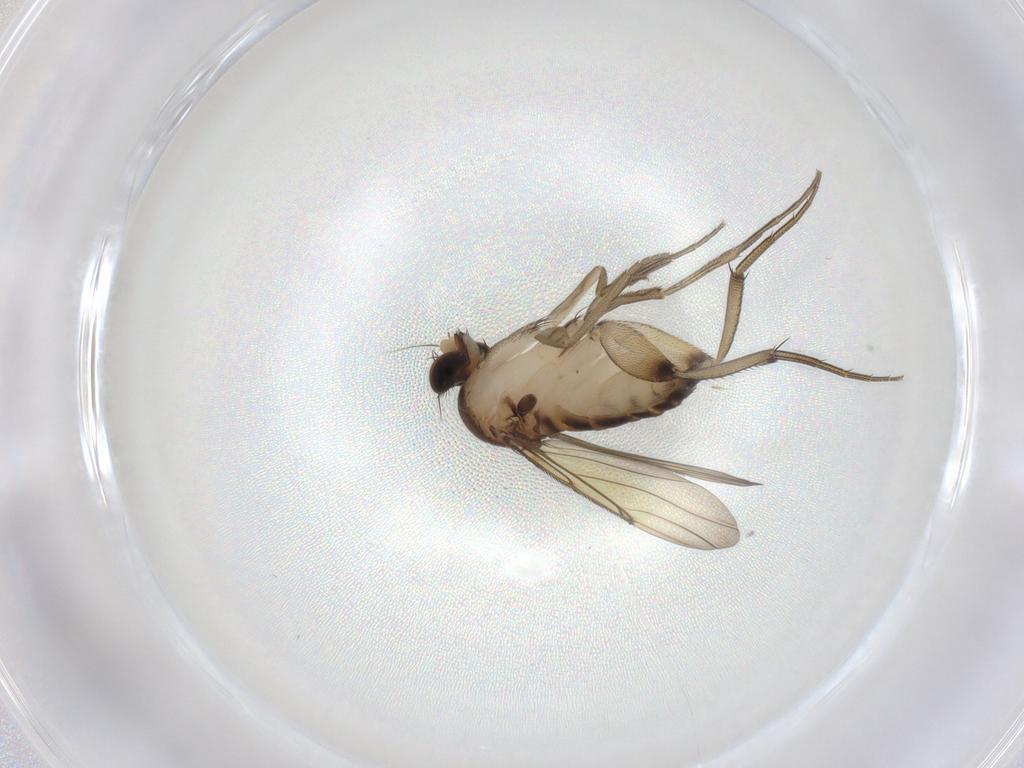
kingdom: Animalia
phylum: Arthropoda
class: Insecta
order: Diptera
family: Phoridae
